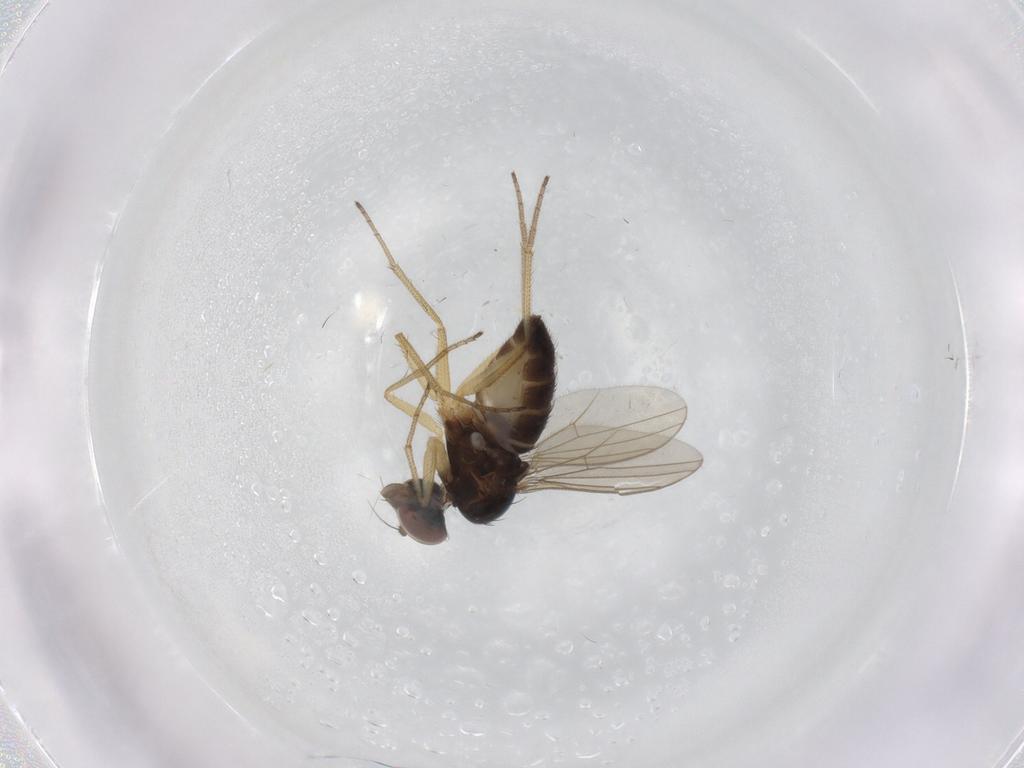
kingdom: Animalia
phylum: Arthropoda
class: Insecta
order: Diptera
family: Dolichopodidae
